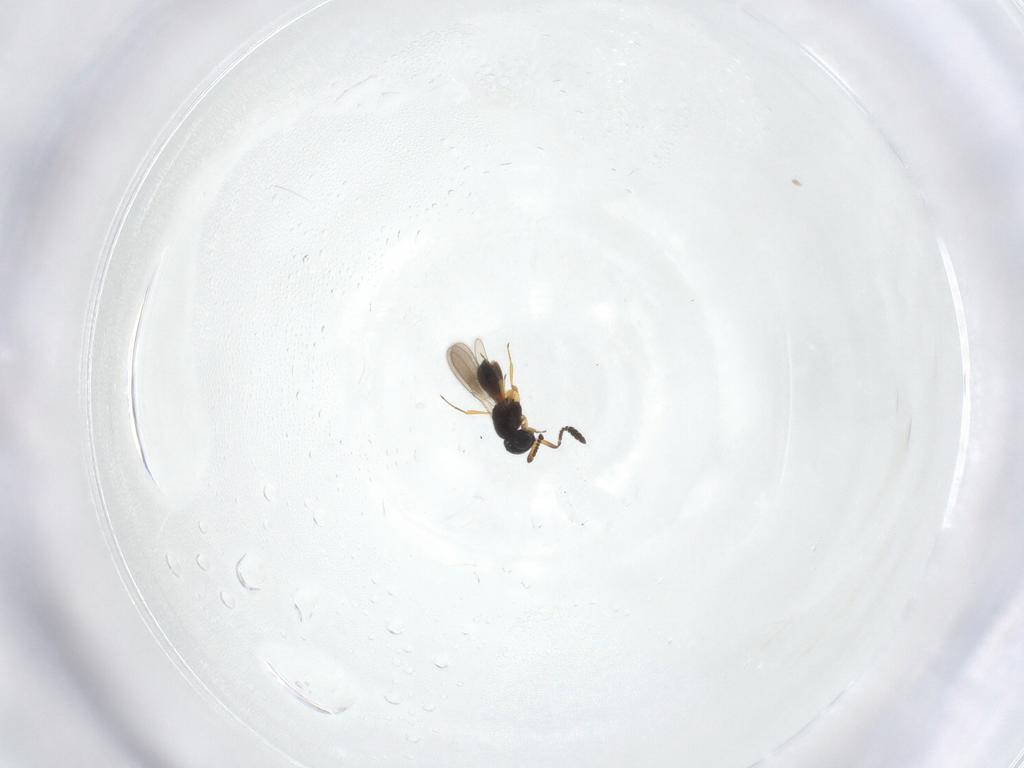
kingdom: Animalia
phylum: Arthropoda
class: Insecta
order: Hymenoptera
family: Scelionidae
